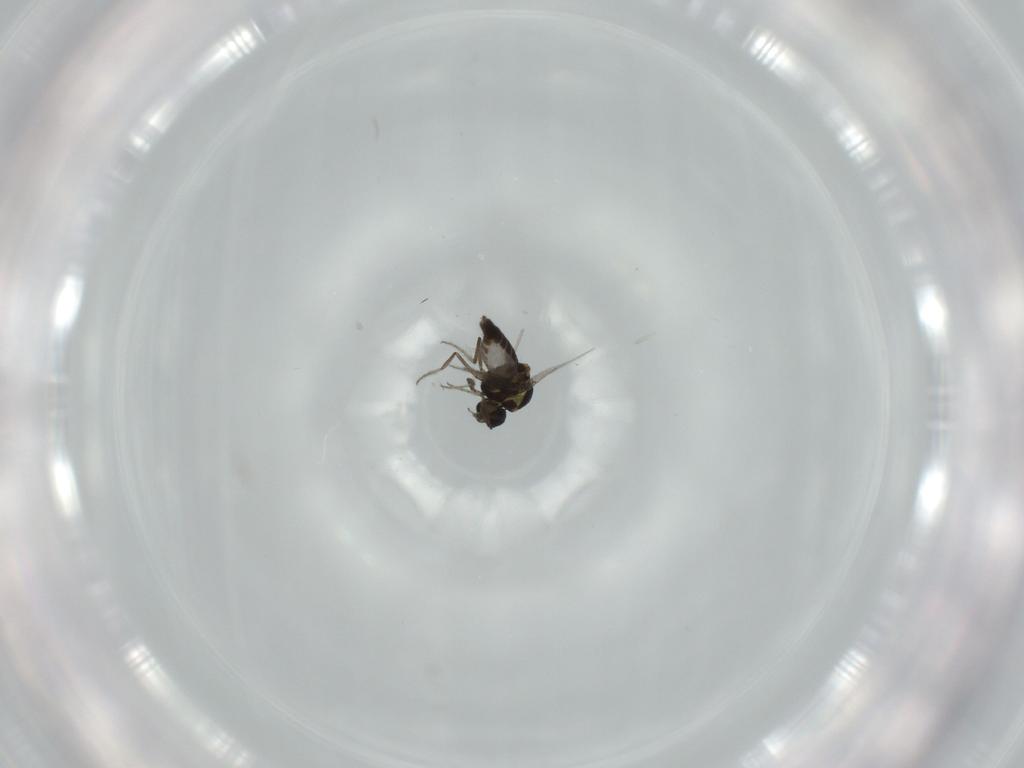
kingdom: Animalia
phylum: Arthropoda
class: Insecta
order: Diptera
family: Ceratopogonidae
